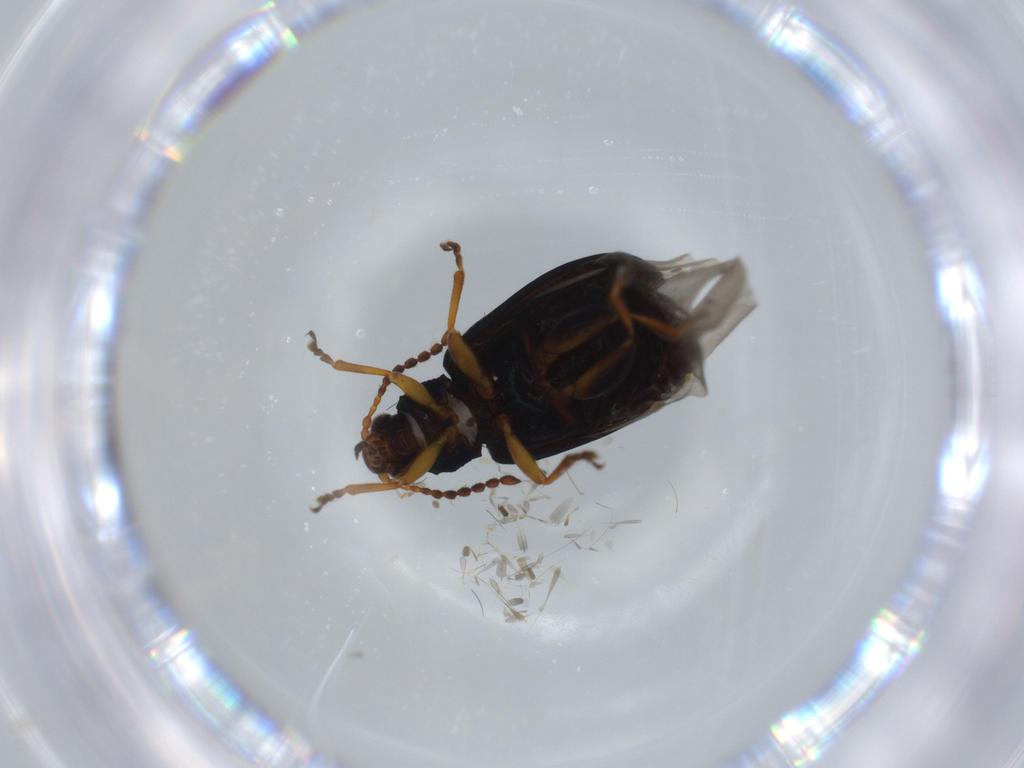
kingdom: Animalia
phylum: Arthropoda
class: Insecta
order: Coleoptera
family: Chrysomelidae
